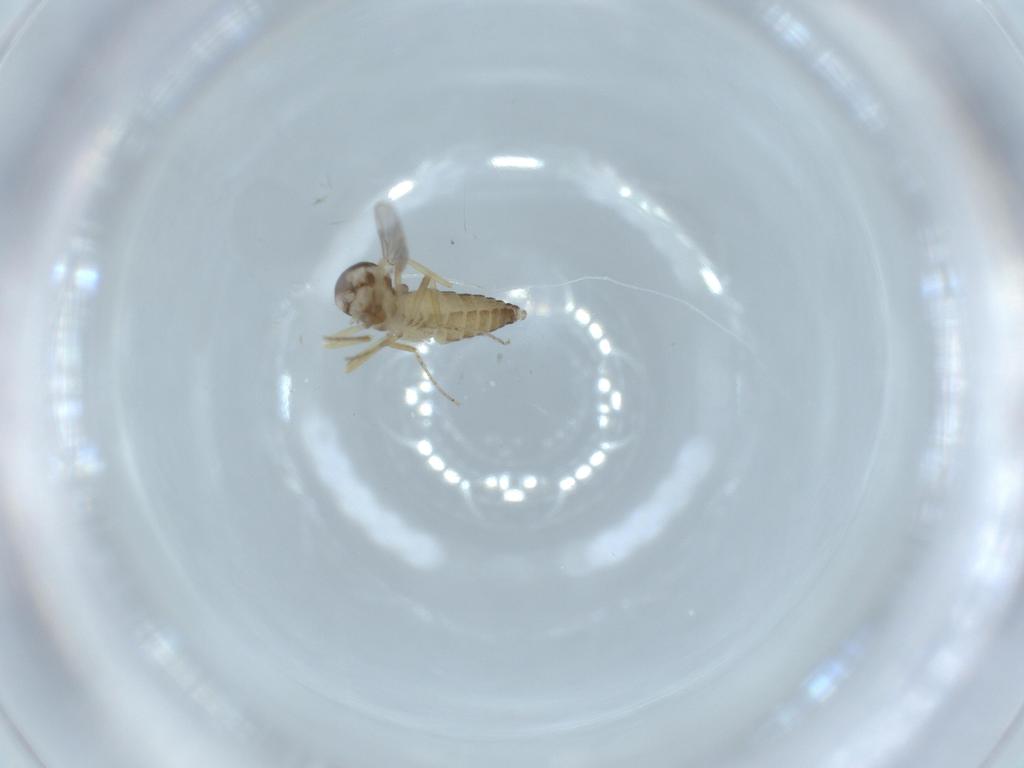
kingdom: Animalia
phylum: Arthropoda
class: Insecta
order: Diptera
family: Ceratopogonidae
